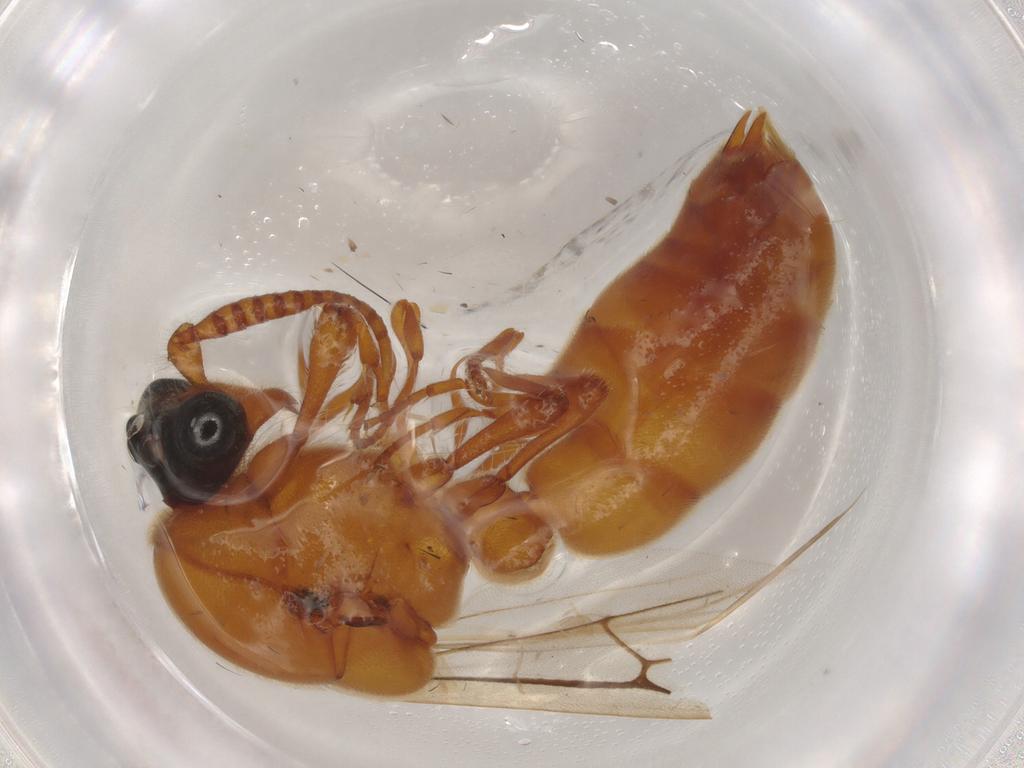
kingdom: Animalia
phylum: Arthropoda
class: Insecta
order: Hymenoptera
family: Formicidae
